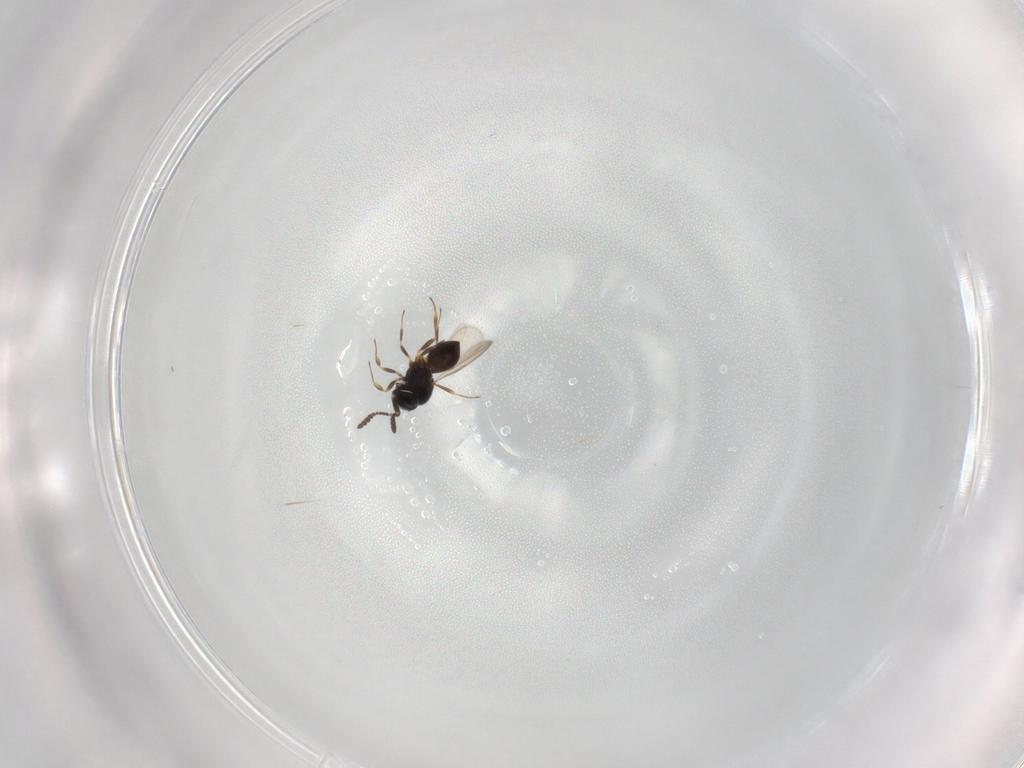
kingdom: Animalia
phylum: Arthropoda
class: Insecta
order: Hymenoptera
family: Scelionidae
